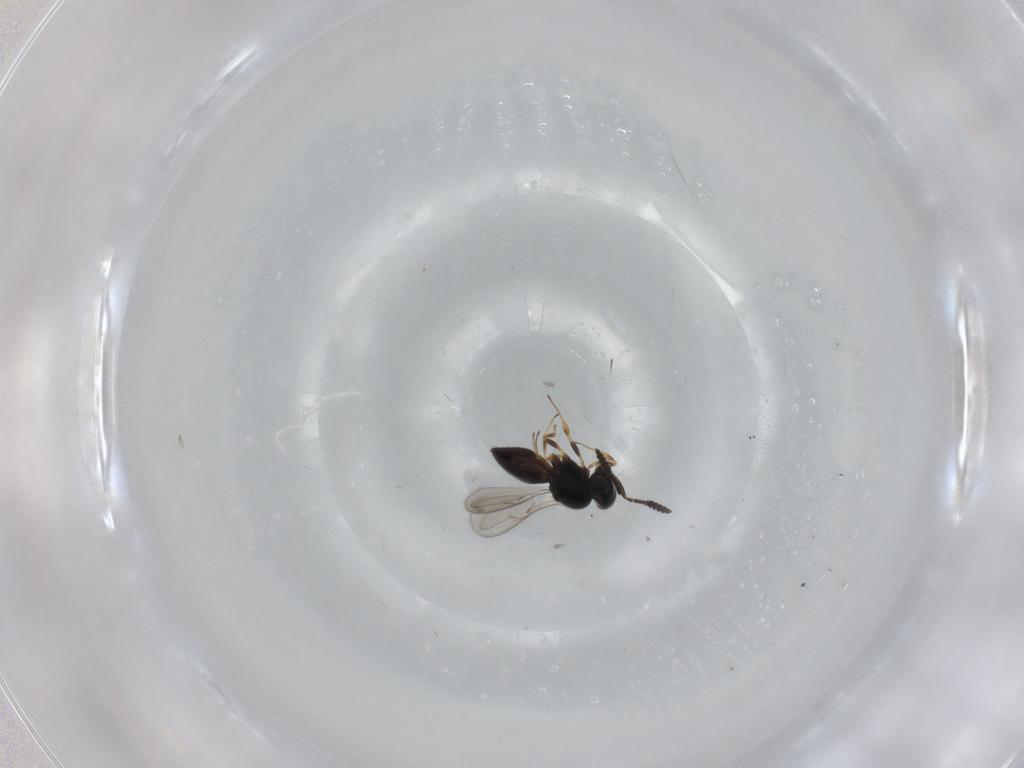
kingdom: Animalia
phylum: Arthropoda
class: Insecta
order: Hymenoptera
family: Scelionidae
